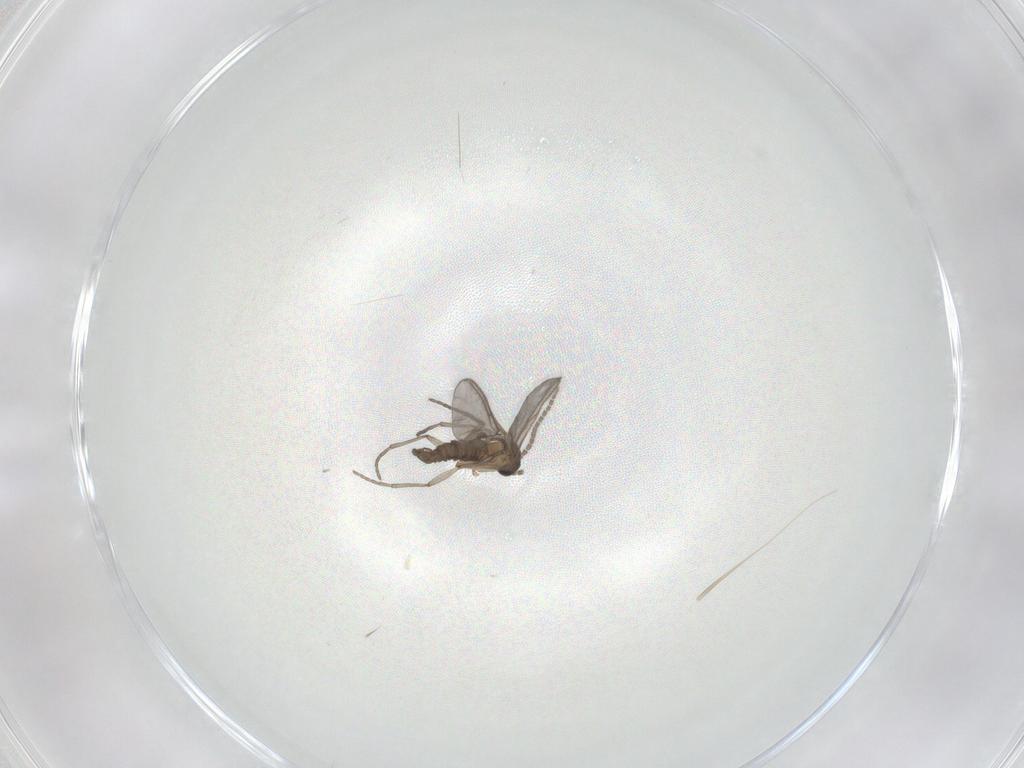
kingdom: Animalia
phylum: Arthropoda
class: Insecta
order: Diptera
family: Sciaridae
